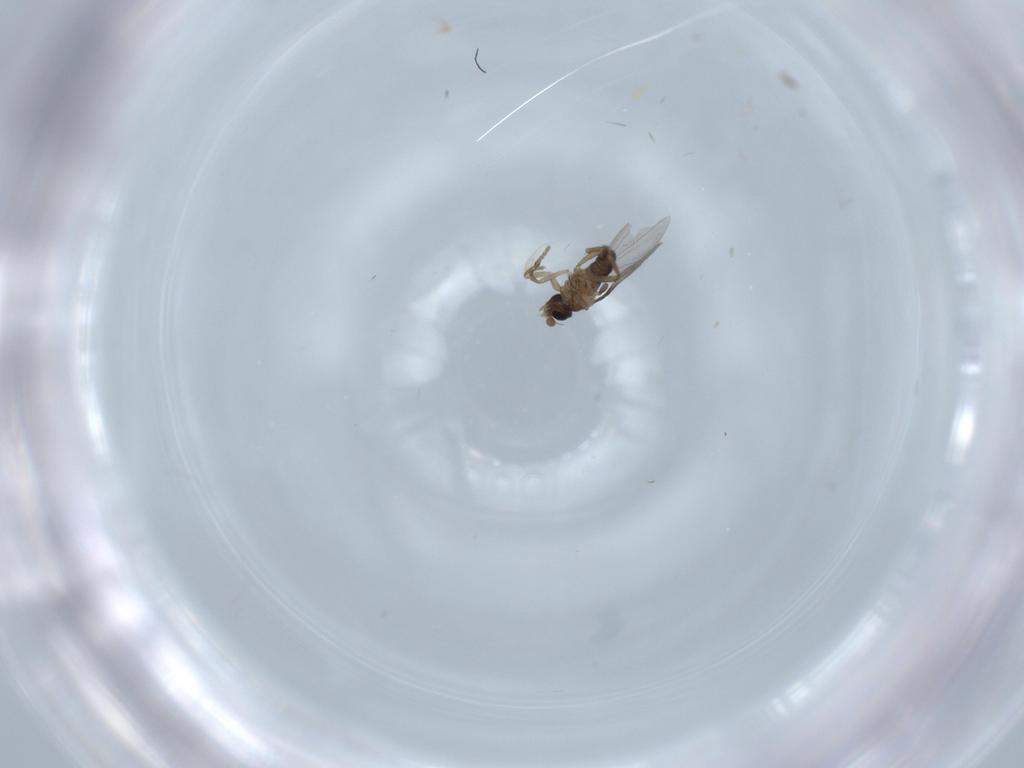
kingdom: Animalia
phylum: Arthropoda
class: Insecta
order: Diptera
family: Phoridae
